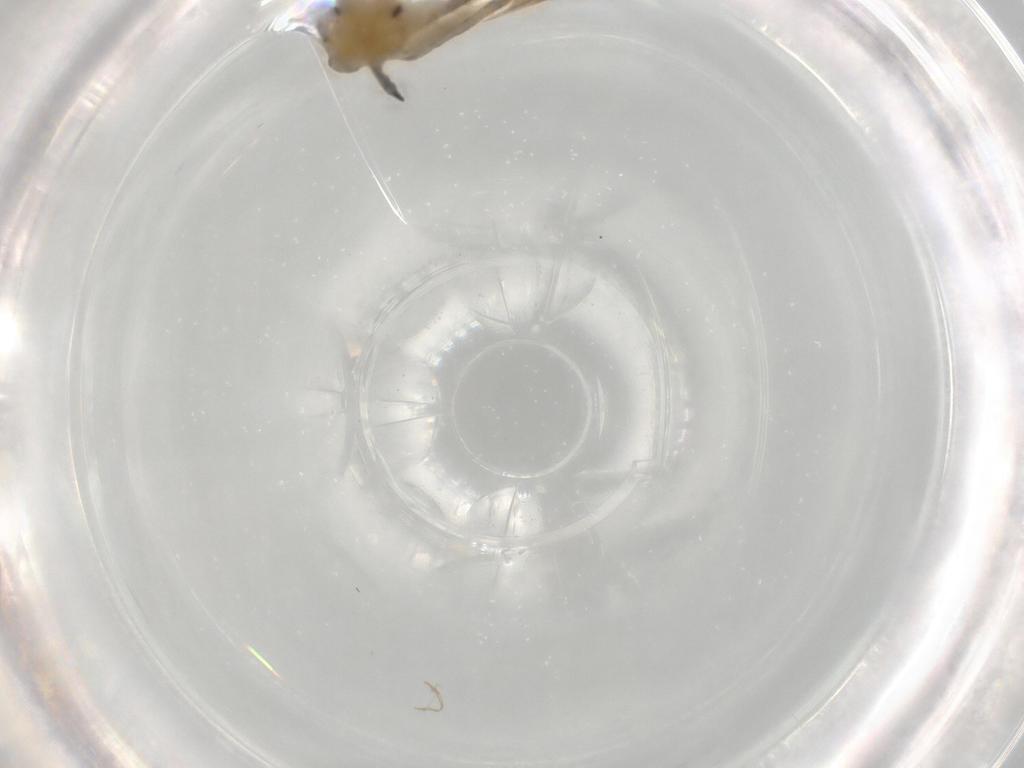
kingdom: Animalia
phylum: Arthropoda
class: Insecta
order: Hemiptera
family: Aphididae
